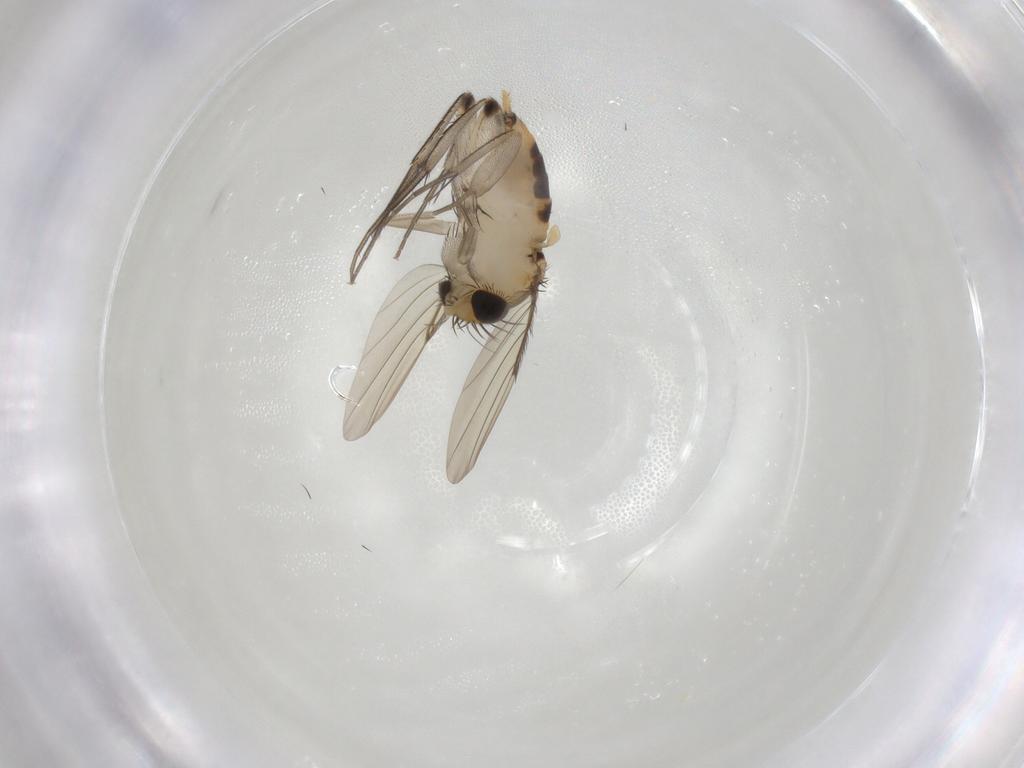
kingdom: Animalia
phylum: Arthropoda
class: Insecta
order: Diptera
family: Phoridae
